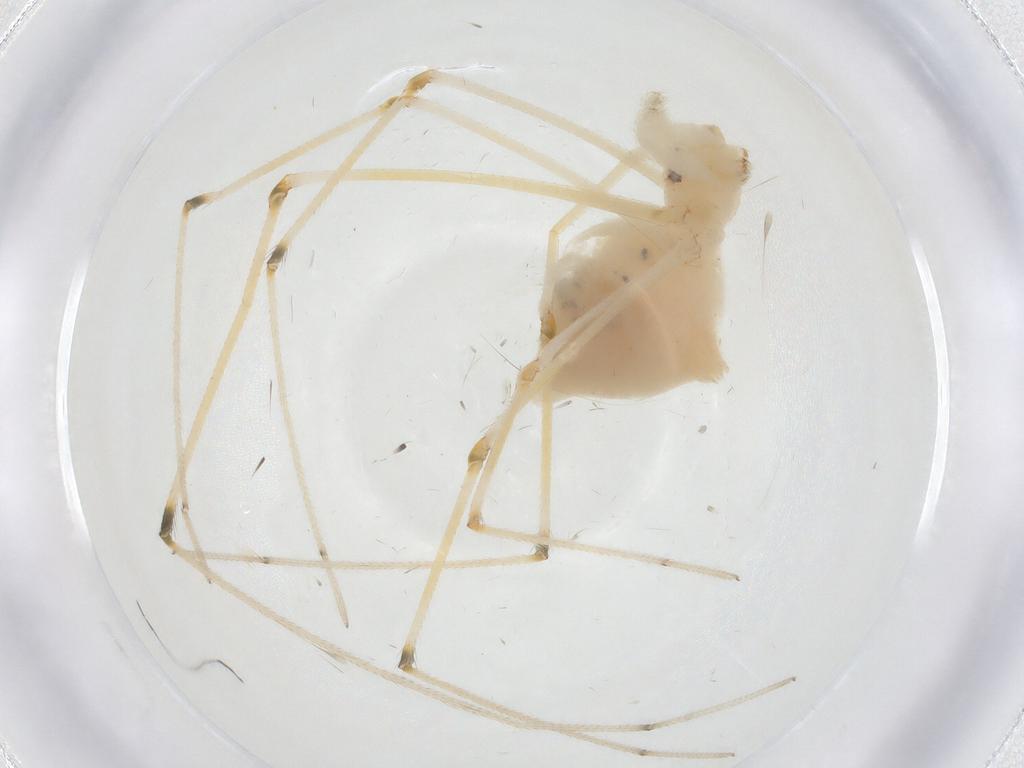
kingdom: Animalia
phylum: Arthropoda
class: Arachnida
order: Araneae
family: Pholcidae
